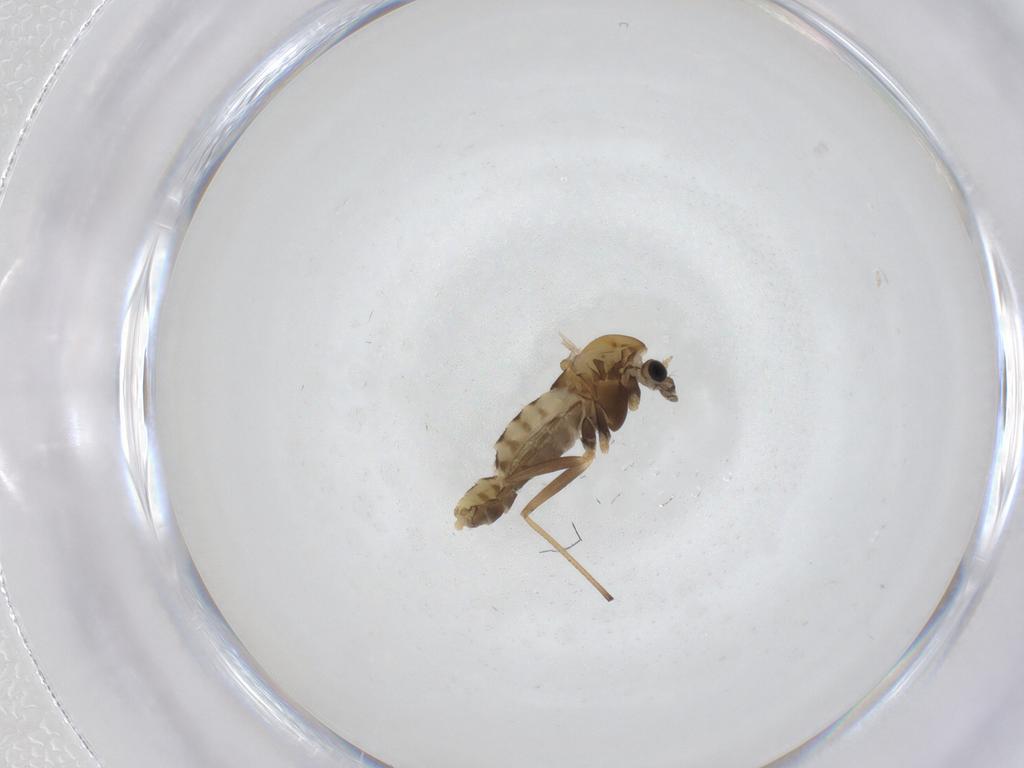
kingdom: Animalia
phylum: Arthropoda
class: Insecta
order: Diptera
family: Chironomidae
